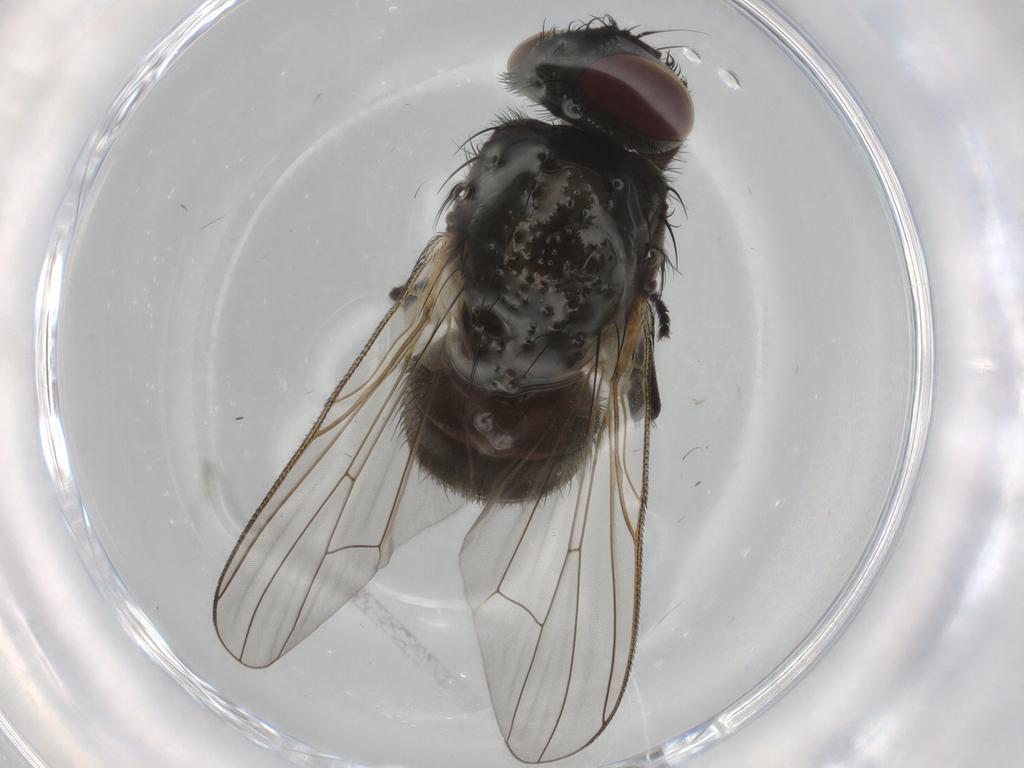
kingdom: Animalia
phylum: Arthropoda
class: Insecta
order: Diptera
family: Muscidae
